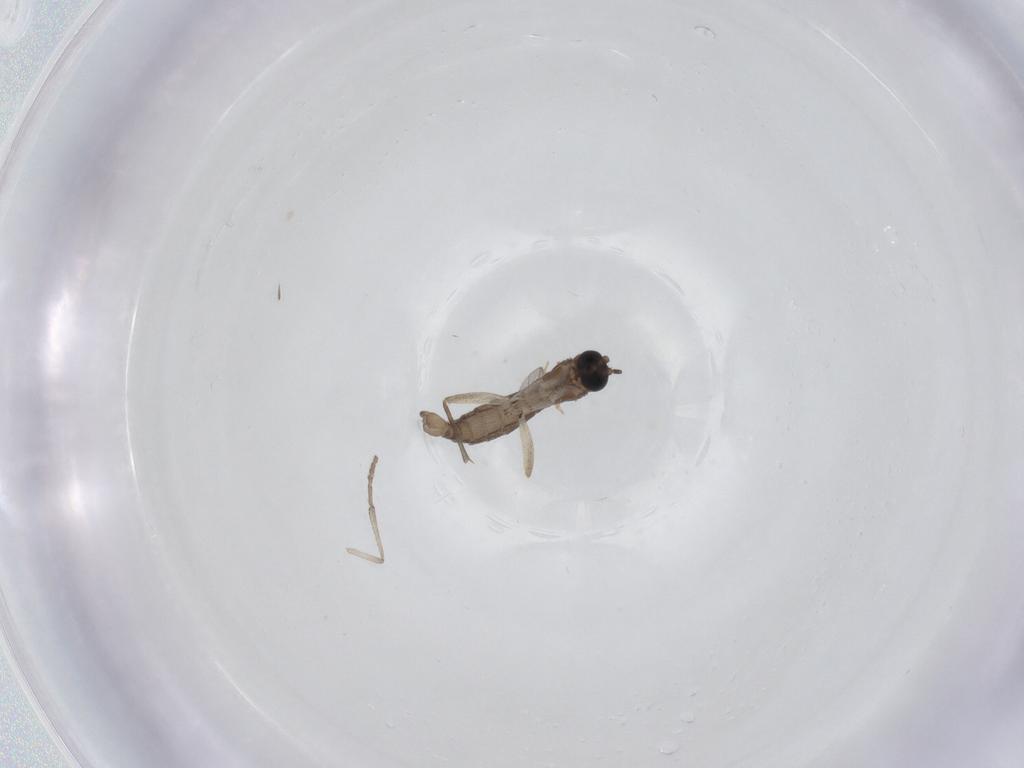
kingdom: Animalia
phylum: Arthropoda
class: Insecta
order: Diptera
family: Sciaridae
